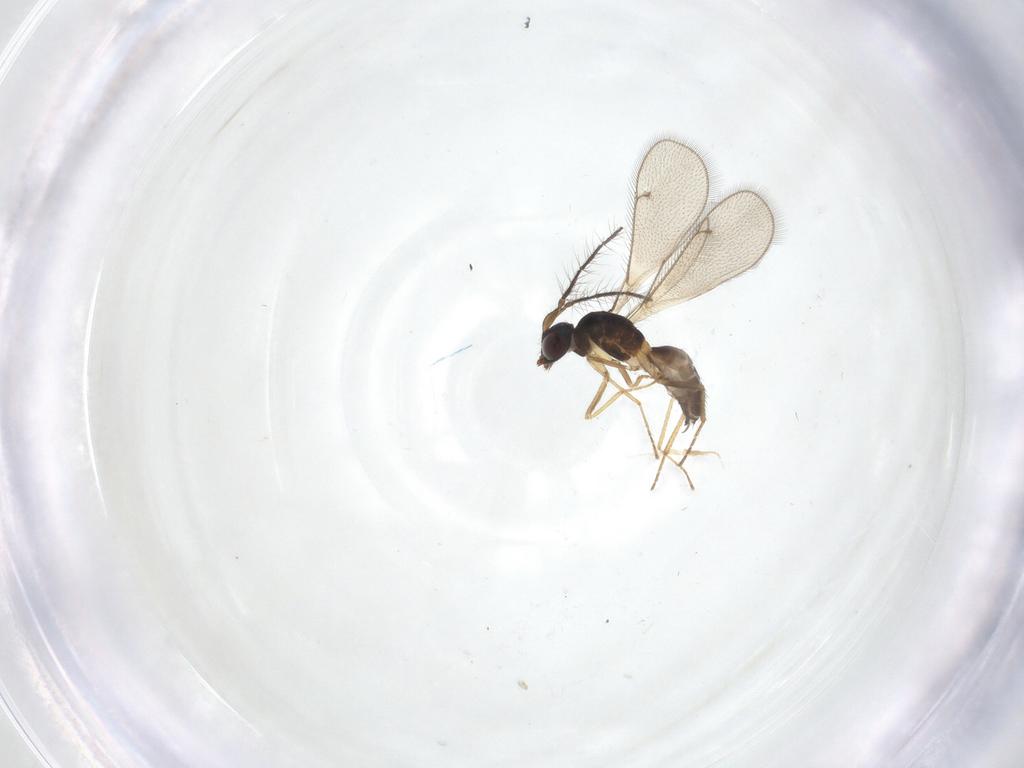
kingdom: Animalia
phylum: Arthropoda
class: Insecta
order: Hymenoptera
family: Eulophidae
